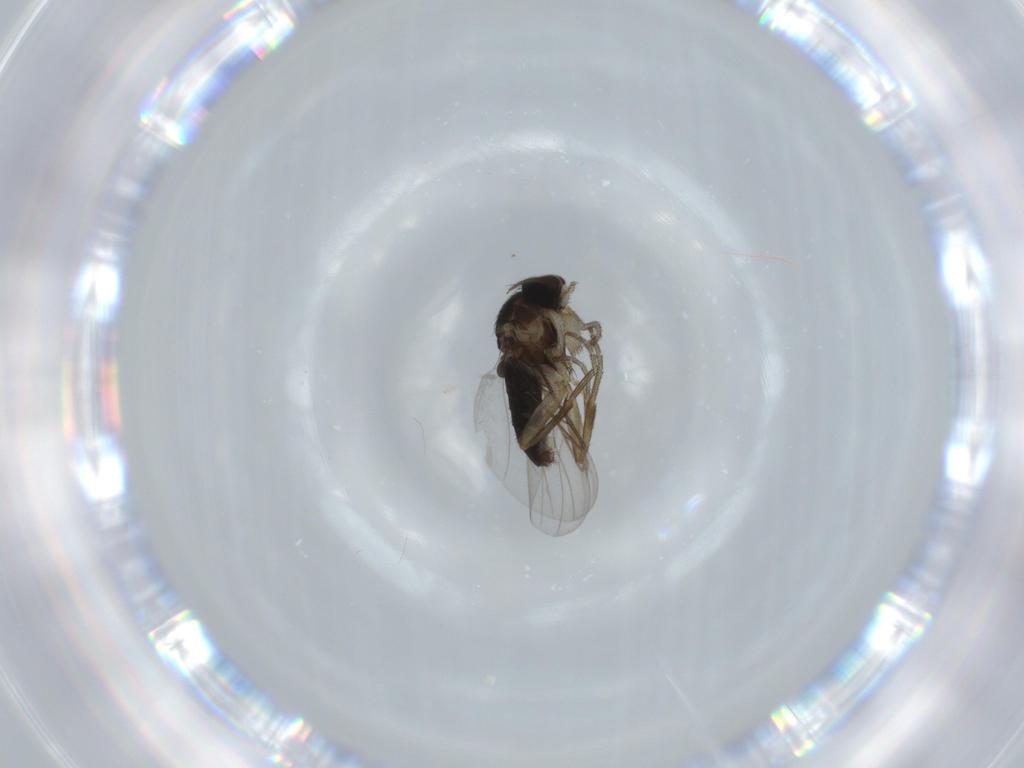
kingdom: Animalia
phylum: Arthropoda
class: Insecta
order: Diptera
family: Phoridae
